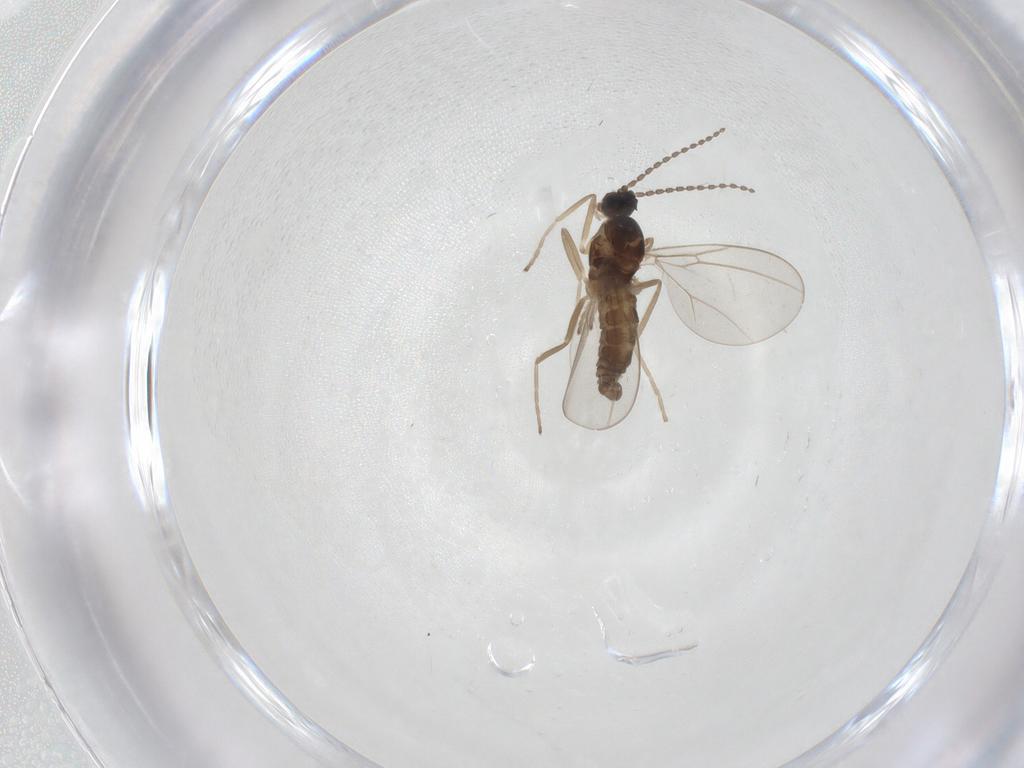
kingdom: Animalia
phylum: Arthropoda
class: Insecta
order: Diptera
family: Cecidomyiidae
